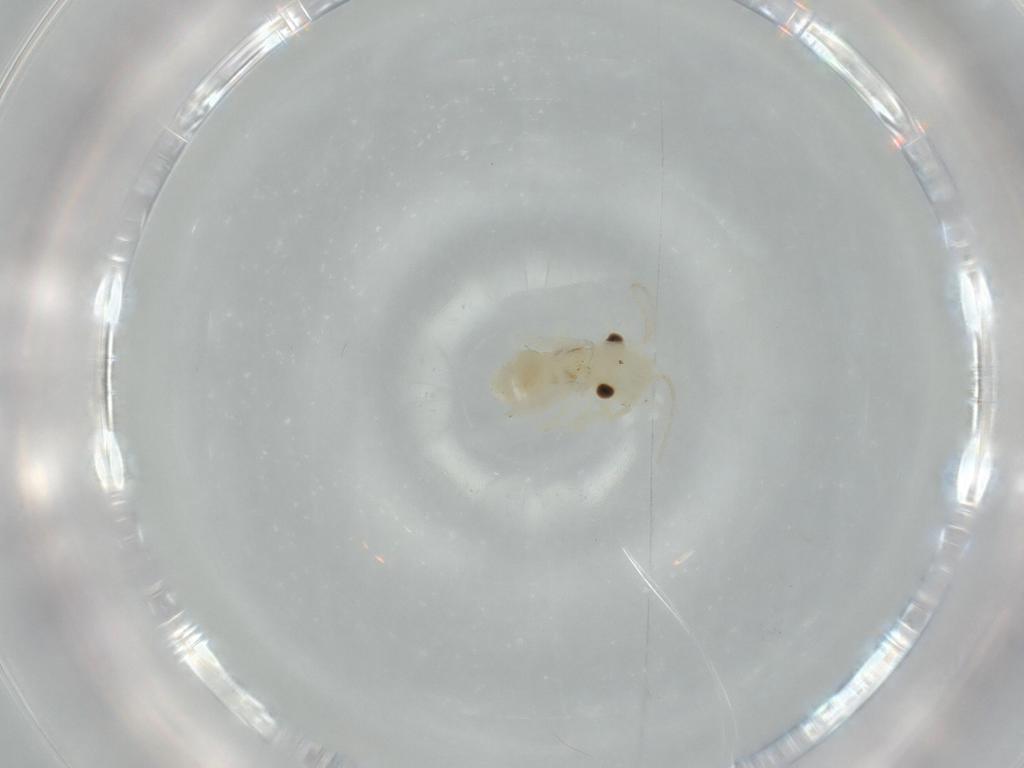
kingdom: Animalia
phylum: Arthropoda
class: Insecta
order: Psocodea
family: Caeciliusidae
